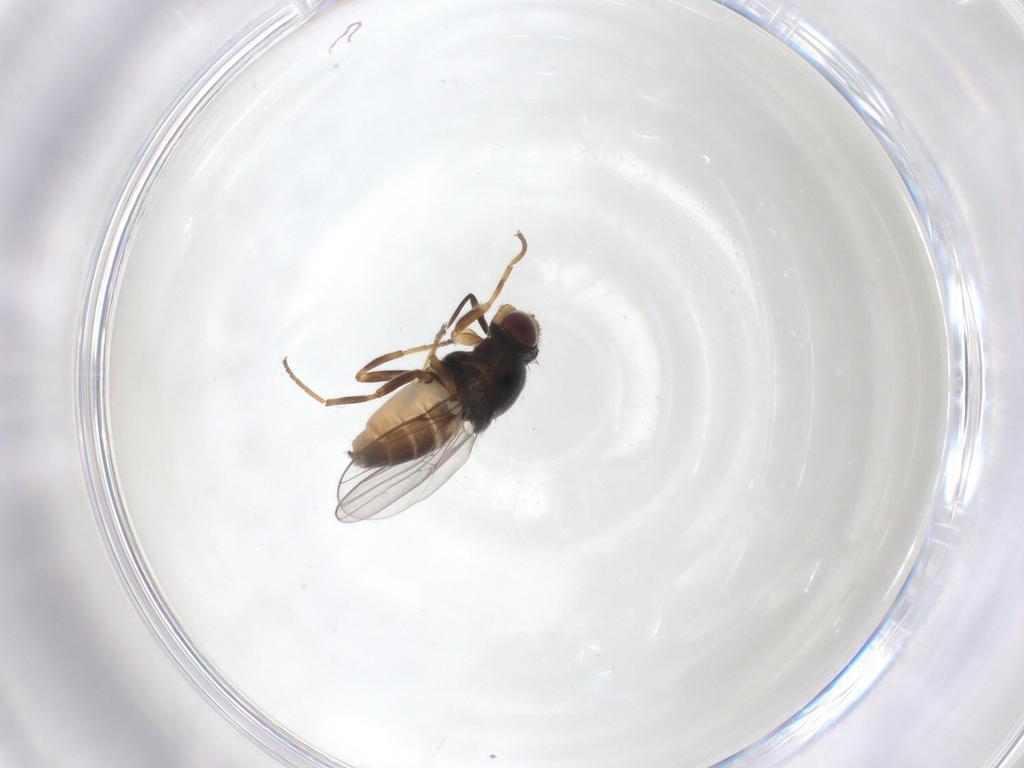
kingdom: Animalia
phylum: Arthropoda
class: Insecta
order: Diptera
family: Chloropidae
